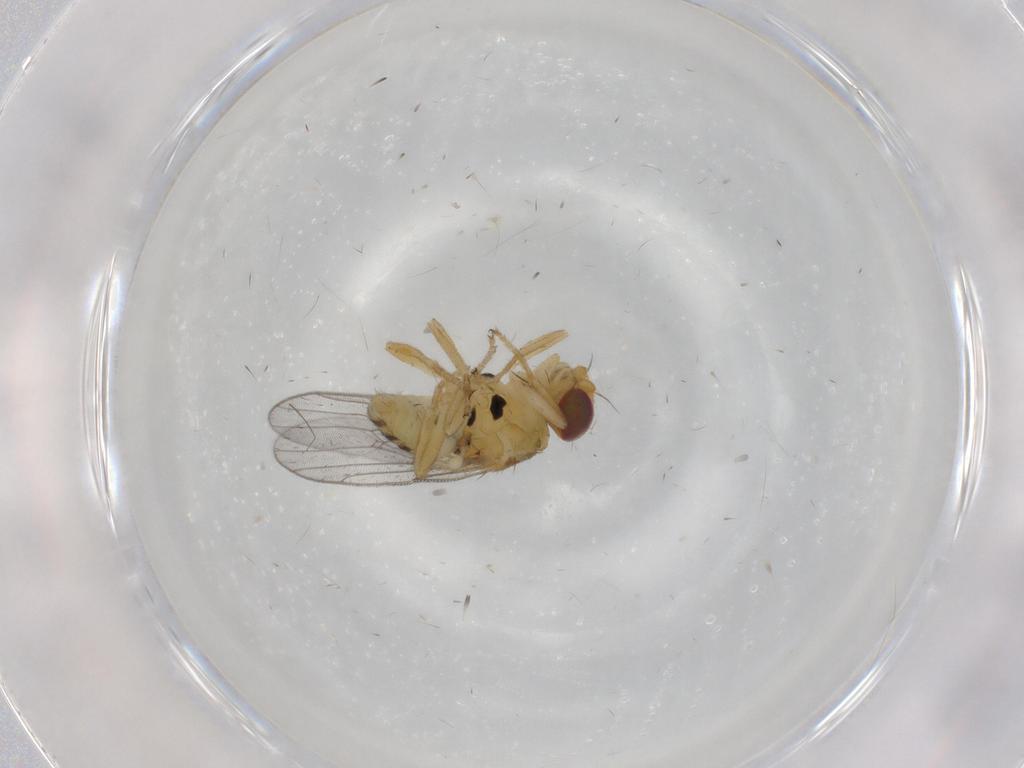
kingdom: Animalia
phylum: Arthropoda
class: Insecta
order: Diptera
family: Chloropidae
